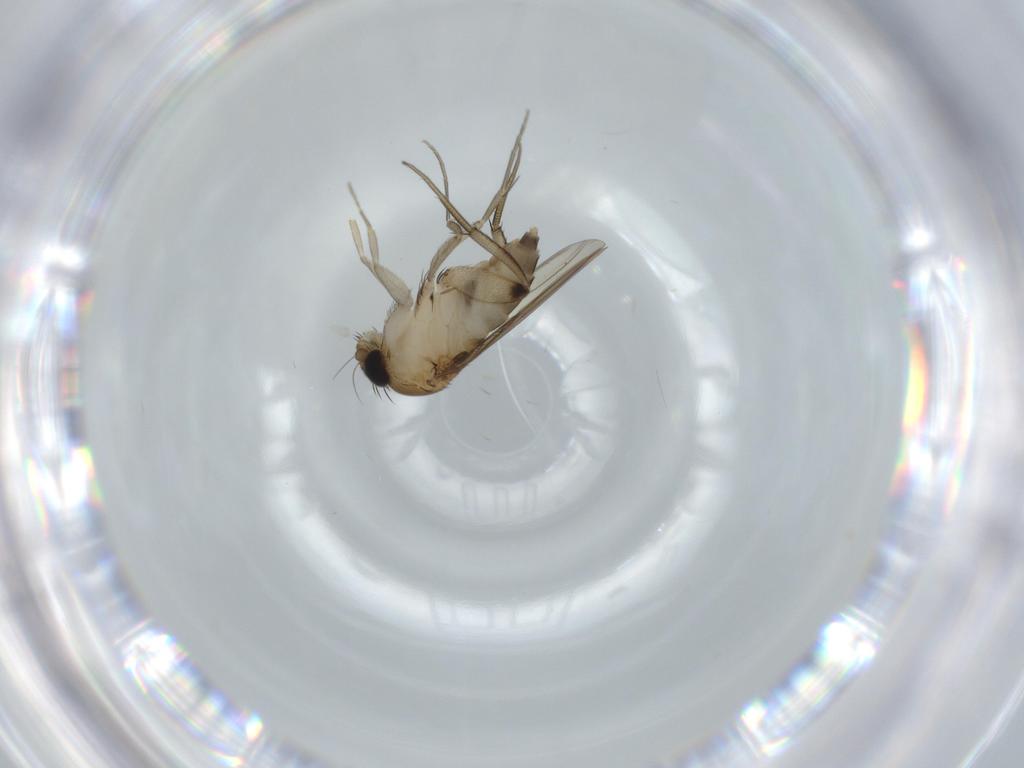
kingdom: Animalia
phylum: Arthropoda
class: Insecta
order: Diptera
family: Phoridae
